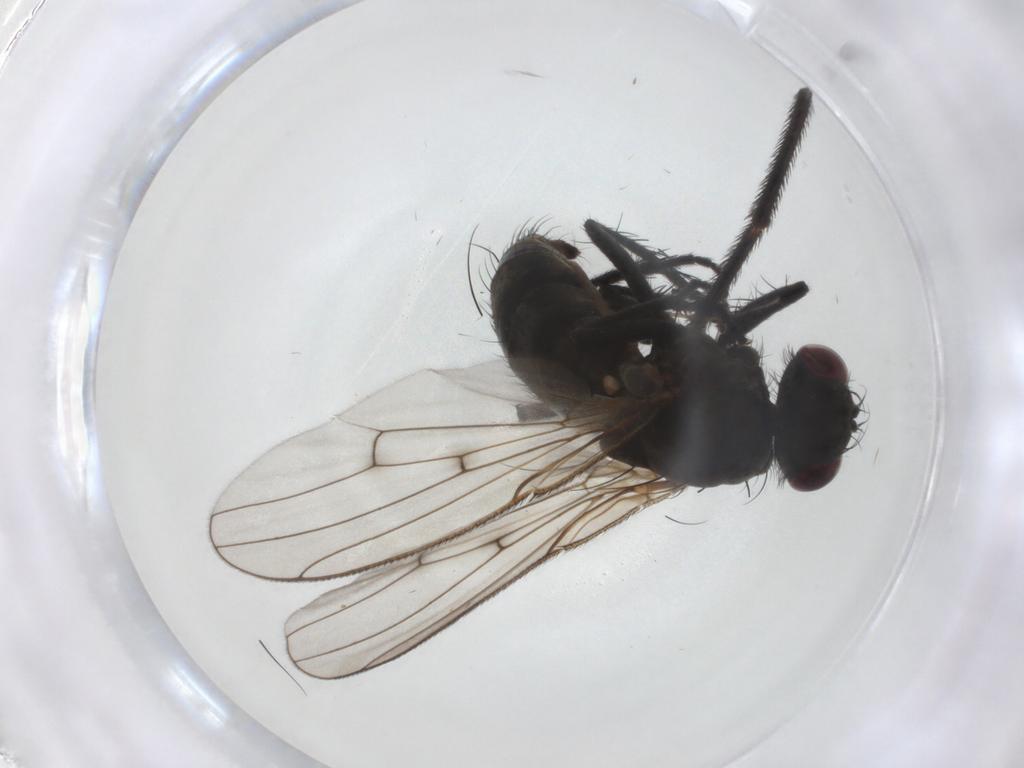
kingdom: Animalia
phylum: Arthropoda
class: Insecta
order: Diptera
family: Muscidae
